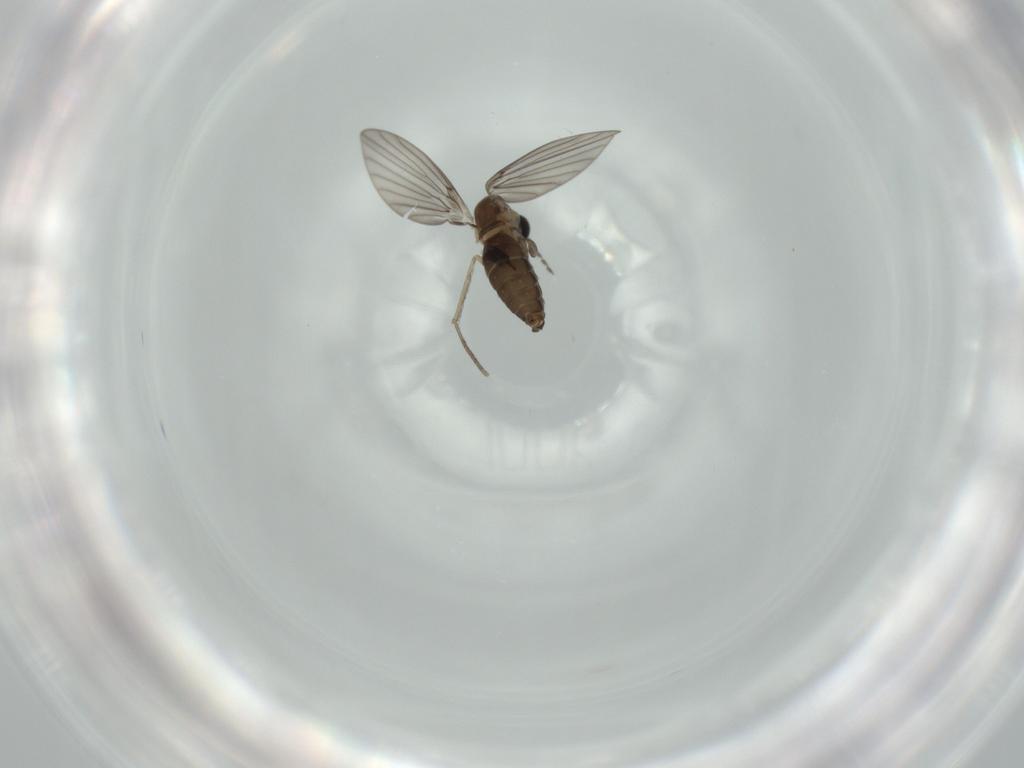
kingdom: Animalia
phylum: Arthropoda
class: Insecta
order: Diptera
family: Psychodidae
